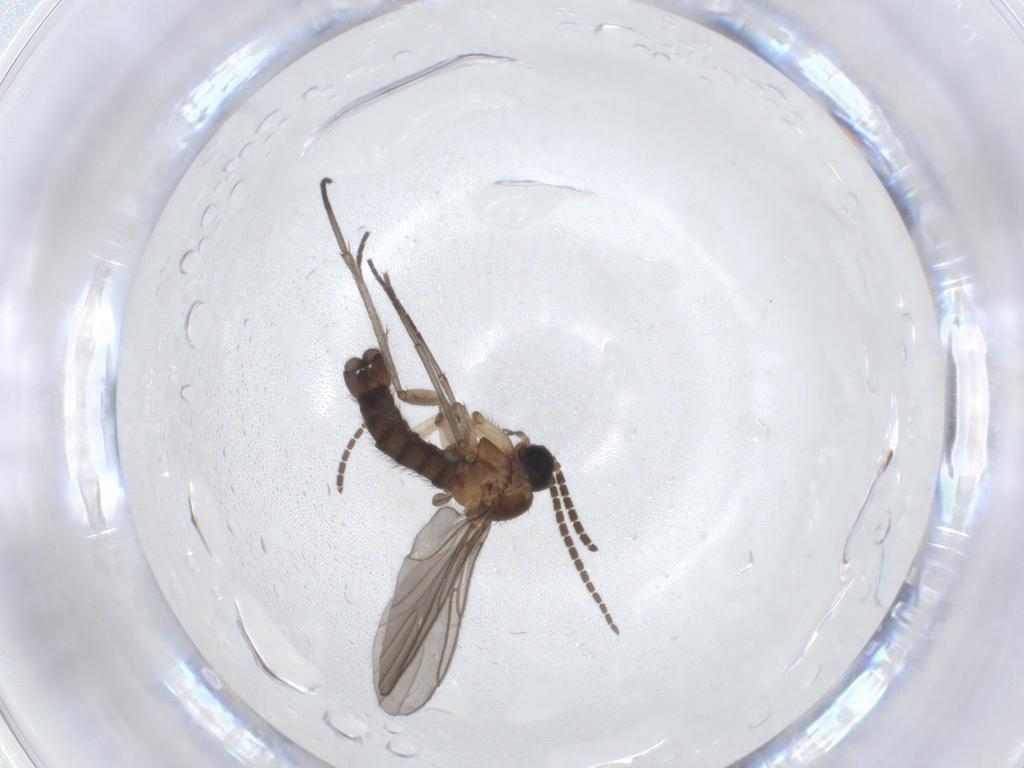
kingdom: Animalia
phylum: Arthropoda
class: Insecta
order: Diptera
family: Sciaridae
